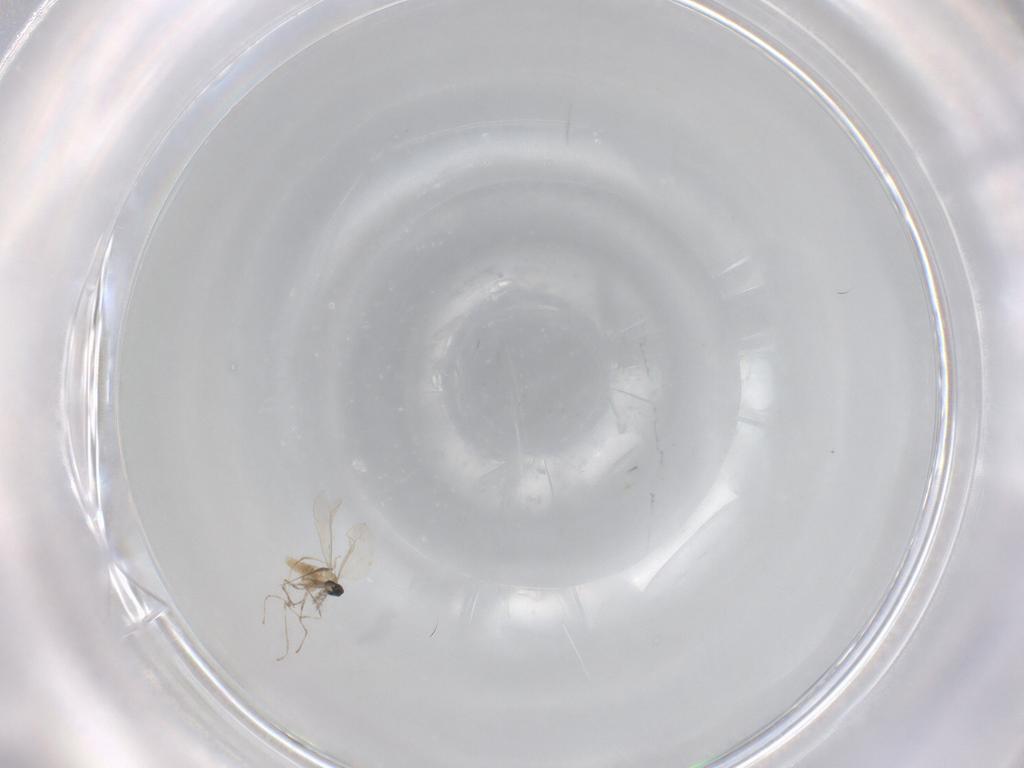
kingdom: Animalia
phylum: Arthropoda
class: Insecta
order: Diptera
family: Cecidomyiidae
